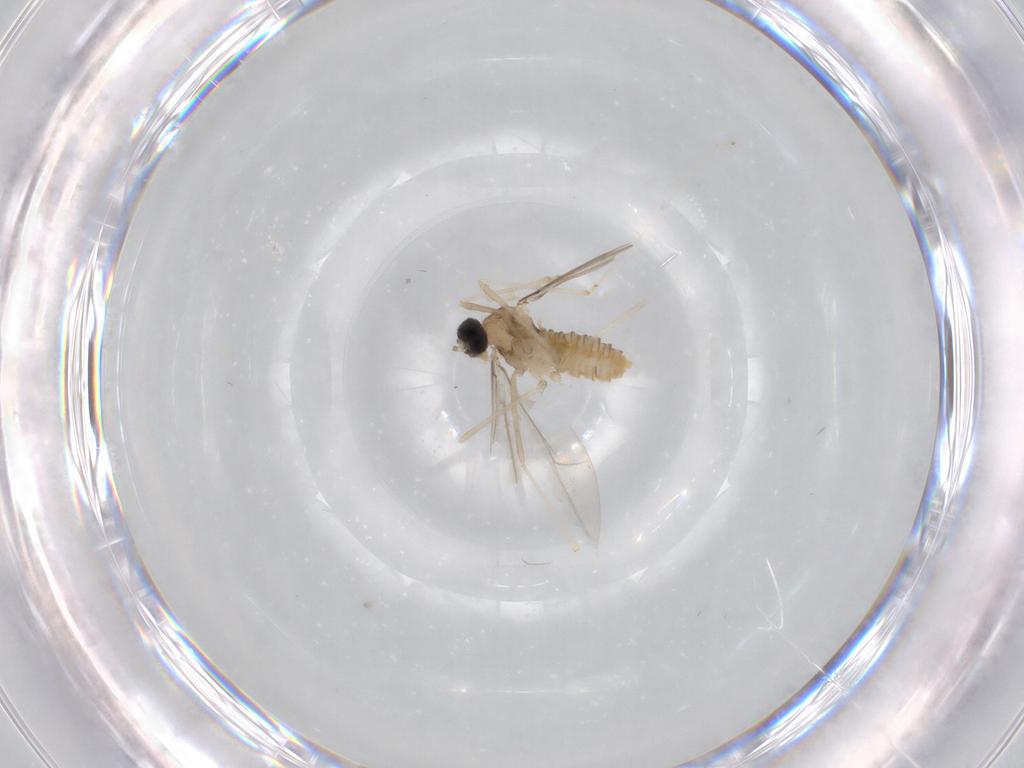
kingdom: Animalia
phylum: Arthropoda
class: Insecta
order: Diptera
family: Cecidomyiidae
